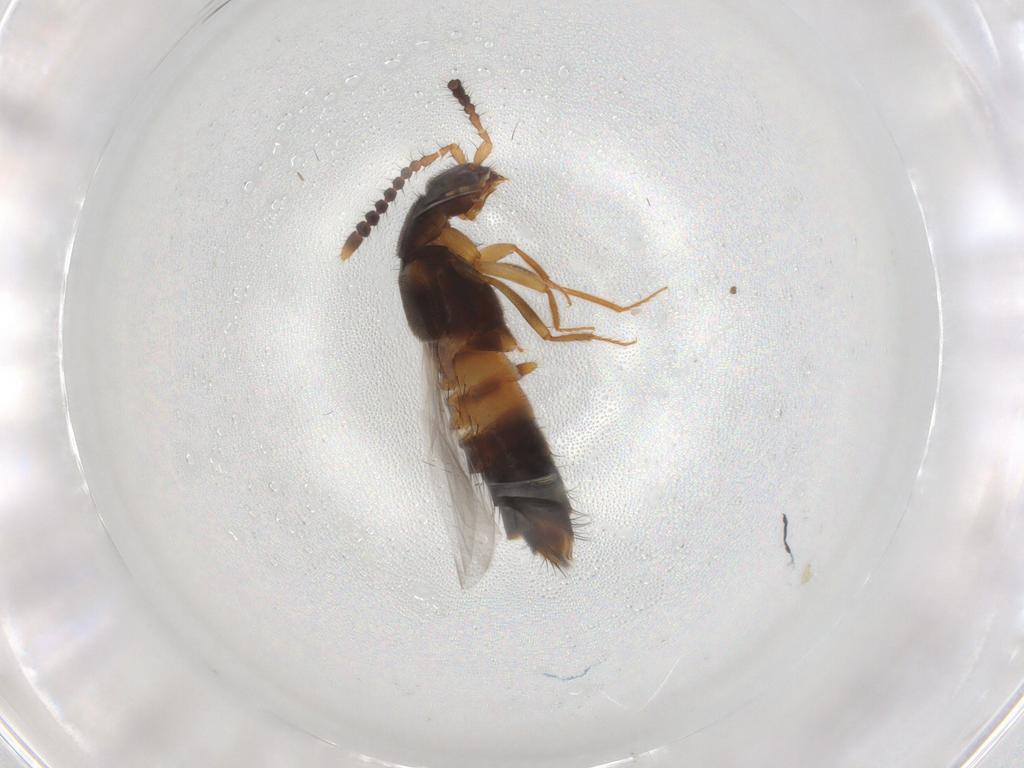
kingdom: Animalia
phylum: Arthropoda
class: Insecta
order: Coleoptera
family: Staphylinidae
